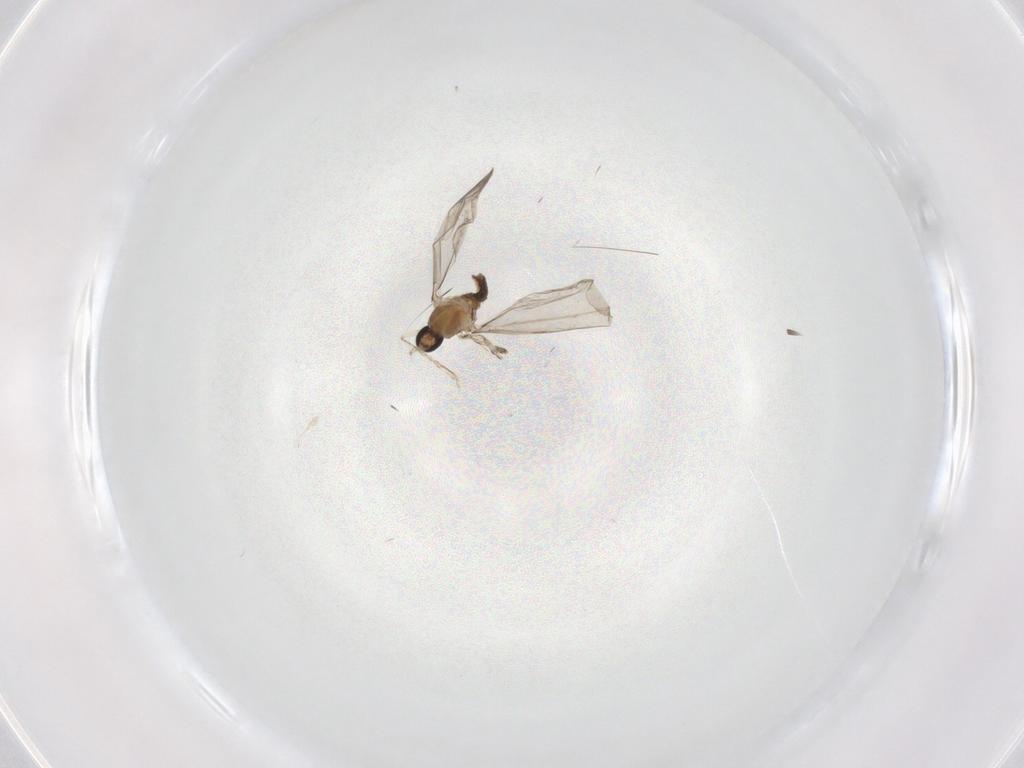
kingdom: Animalia
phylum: Arthropoda
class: Insecta
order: Diptera
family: Cecidomyiidae
